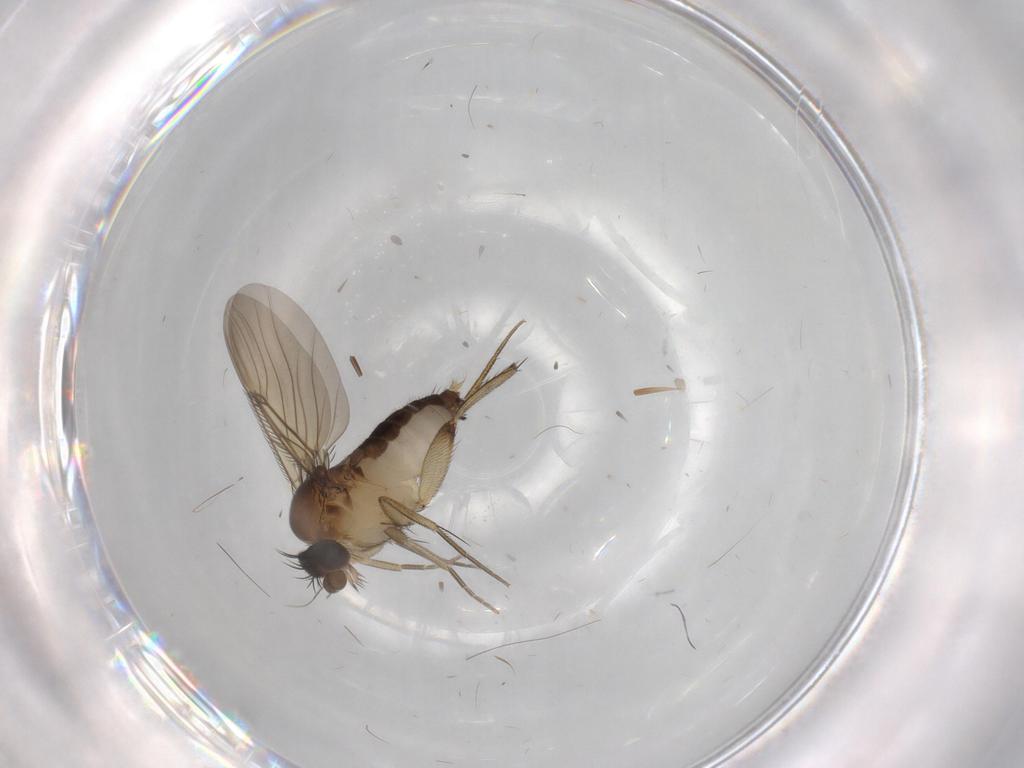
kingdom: Animalia
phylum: Arthropoda
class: Insecta
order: Diptera
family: Phoridae
